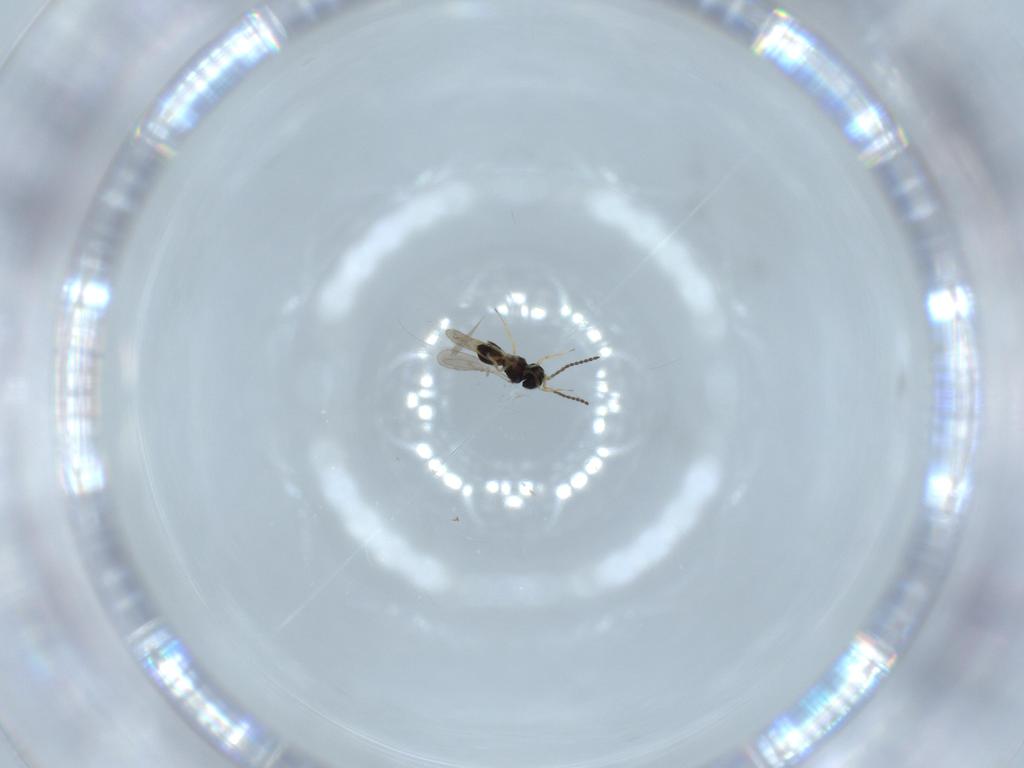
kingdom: Animalia
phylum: Arthropoda
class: Insecta
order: Hymenoptera
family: Scelionidae
